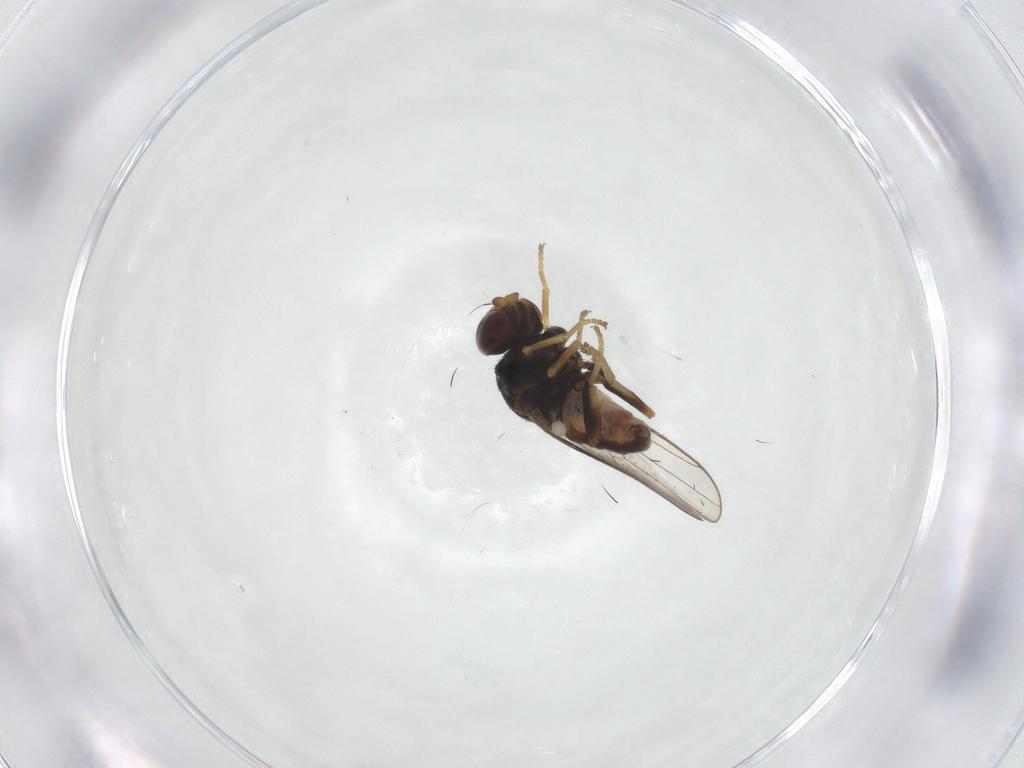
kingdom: Animalia
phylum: Arthropoda
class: Insecta
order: Diptera
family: Chloropidae
